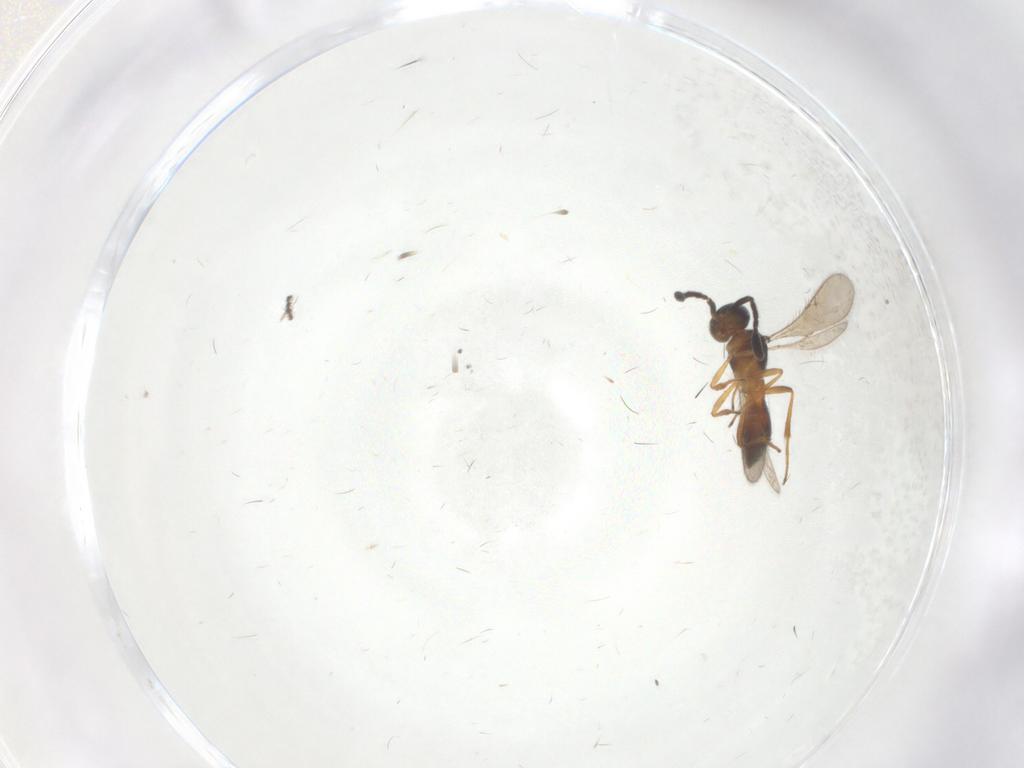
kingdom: Animalia
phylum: Arthropoda
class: Insecta
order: Diptera
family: Cecidomyiidae
